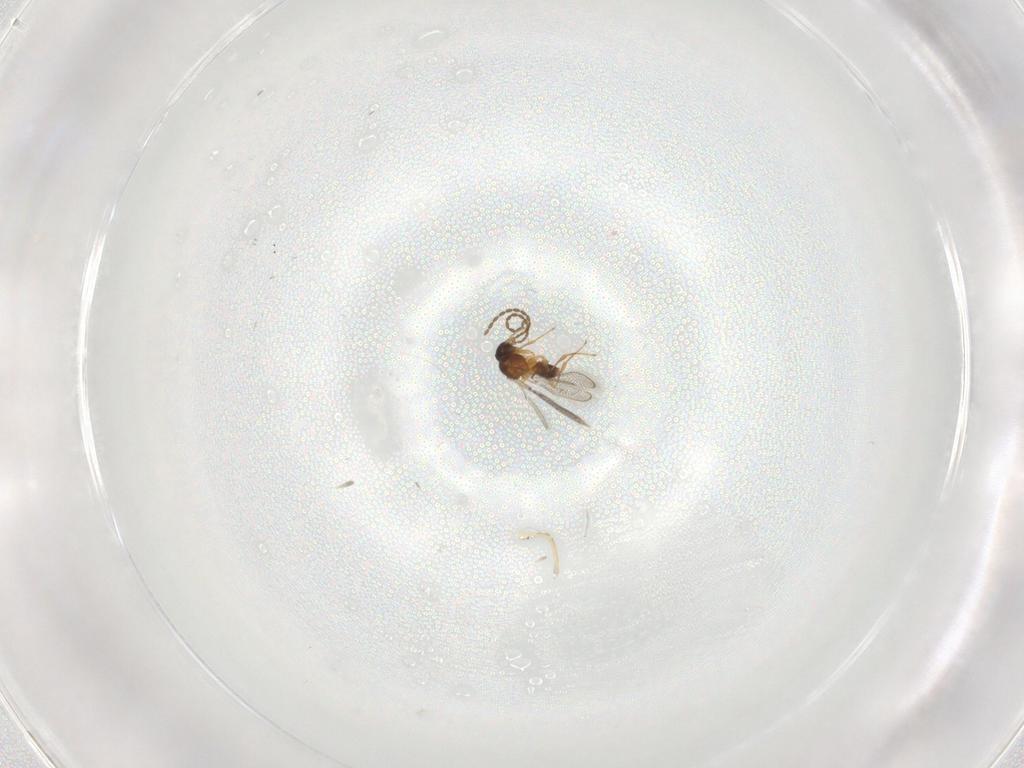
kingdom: Animalia
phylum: Arthropoda
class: Insecta
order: Hymenoptera
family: Figitidae
